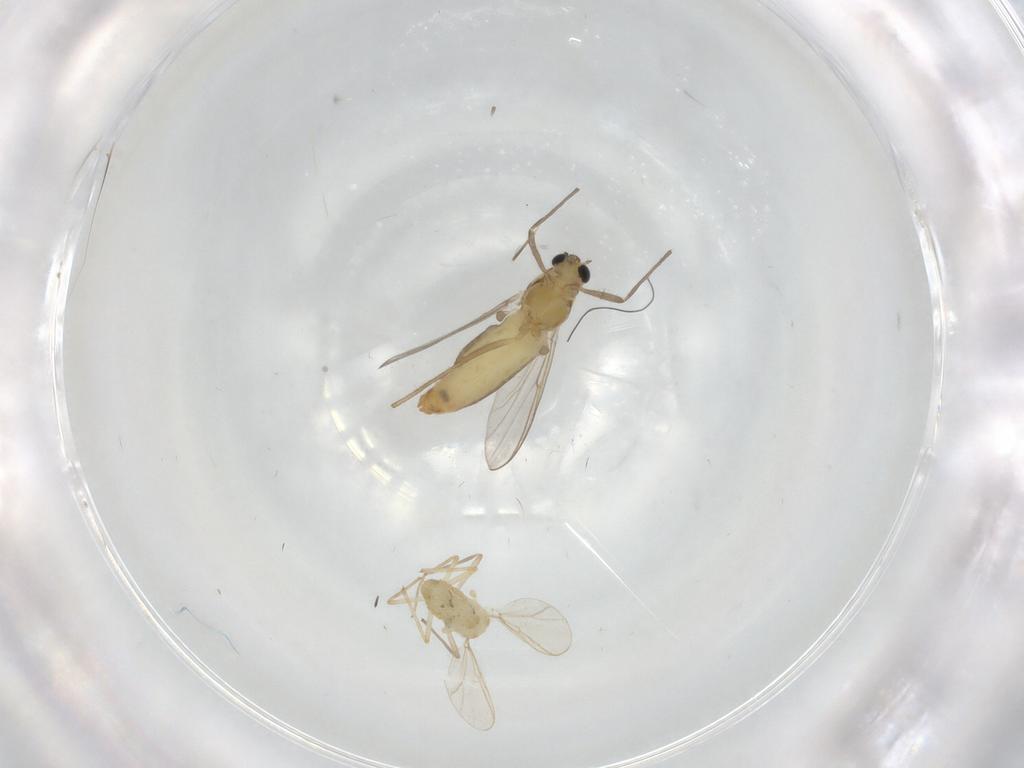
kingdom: Animalia
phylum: Arthropoda
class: Insecta
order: Diptera
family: Chironomidae
